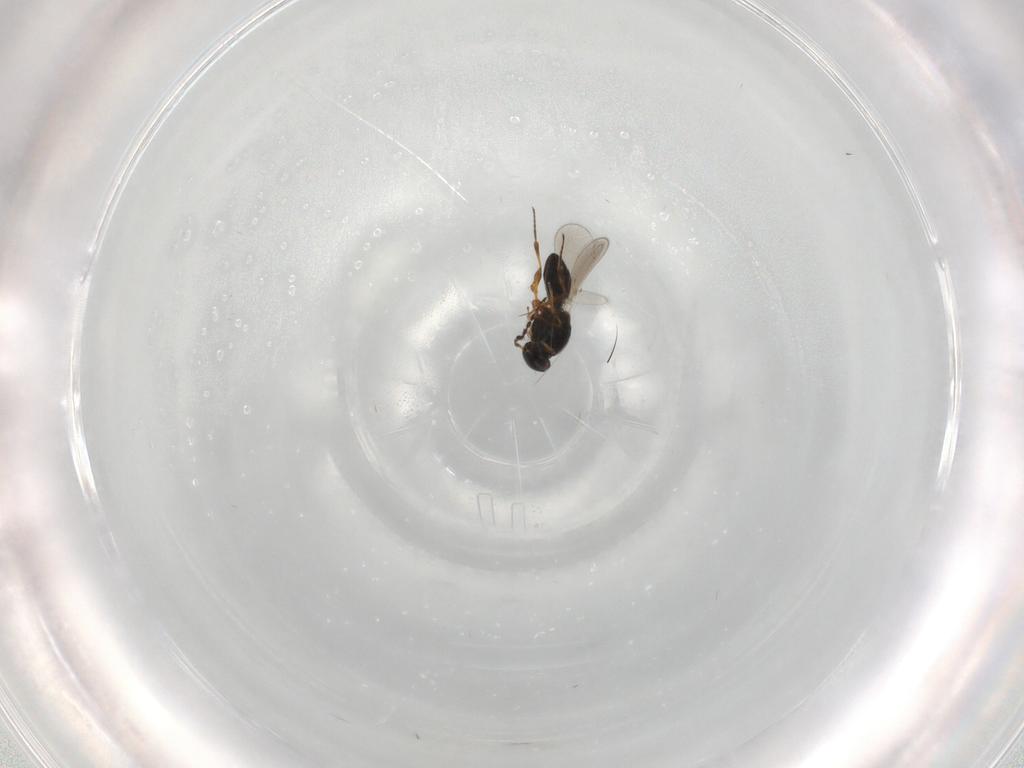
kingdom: Animalia
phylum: Arthropoda
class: Insecta
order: Hymenoptera
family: Platygastridae
